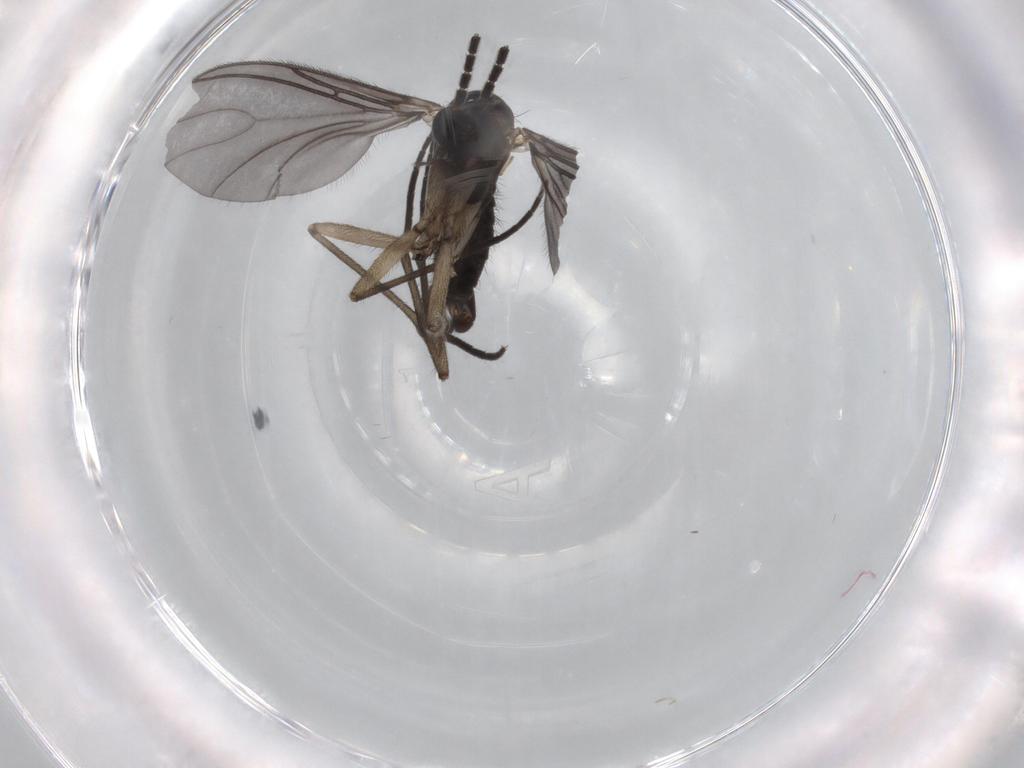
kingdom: Animalia
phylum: Arthropoda
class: Insecta
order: Diptera
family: Sciaridae
